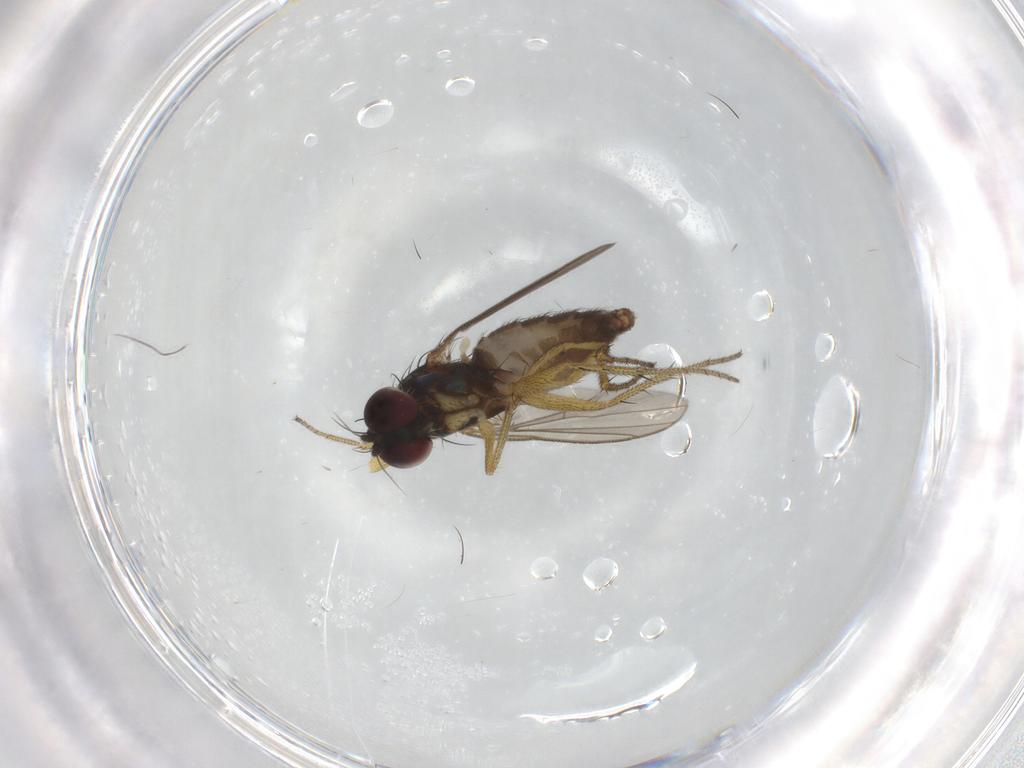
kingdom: Animalia
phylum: Arthropoda
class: Insecta
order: Diptera
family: Dolichopodidae
